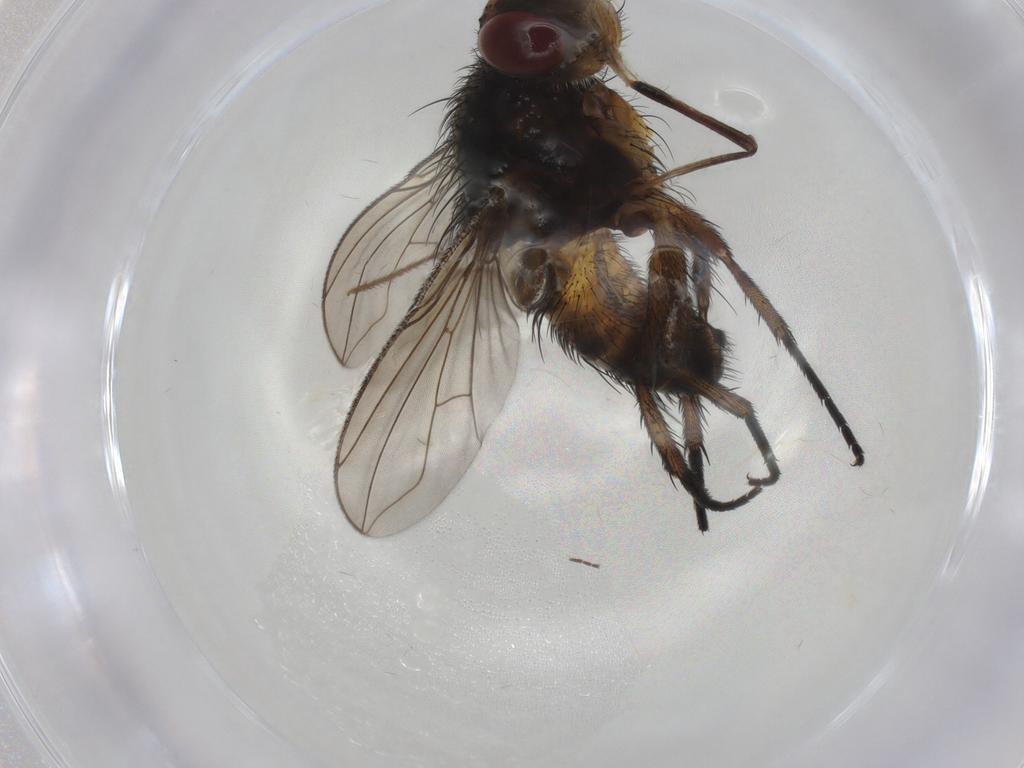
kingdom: Animalia
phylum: Arthropoda
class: Insecta
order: Diptera
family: Tachinidae
